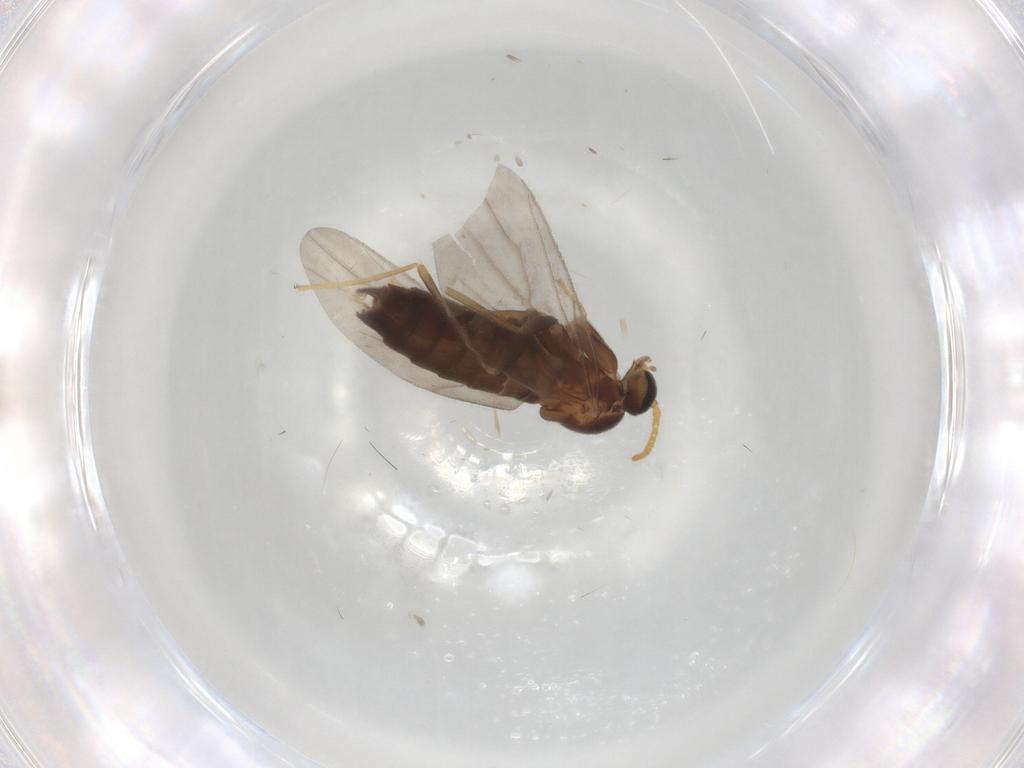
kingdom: Animalia
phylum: Arthropoda
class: Insecta
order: Diptera
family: Scatopsidae
